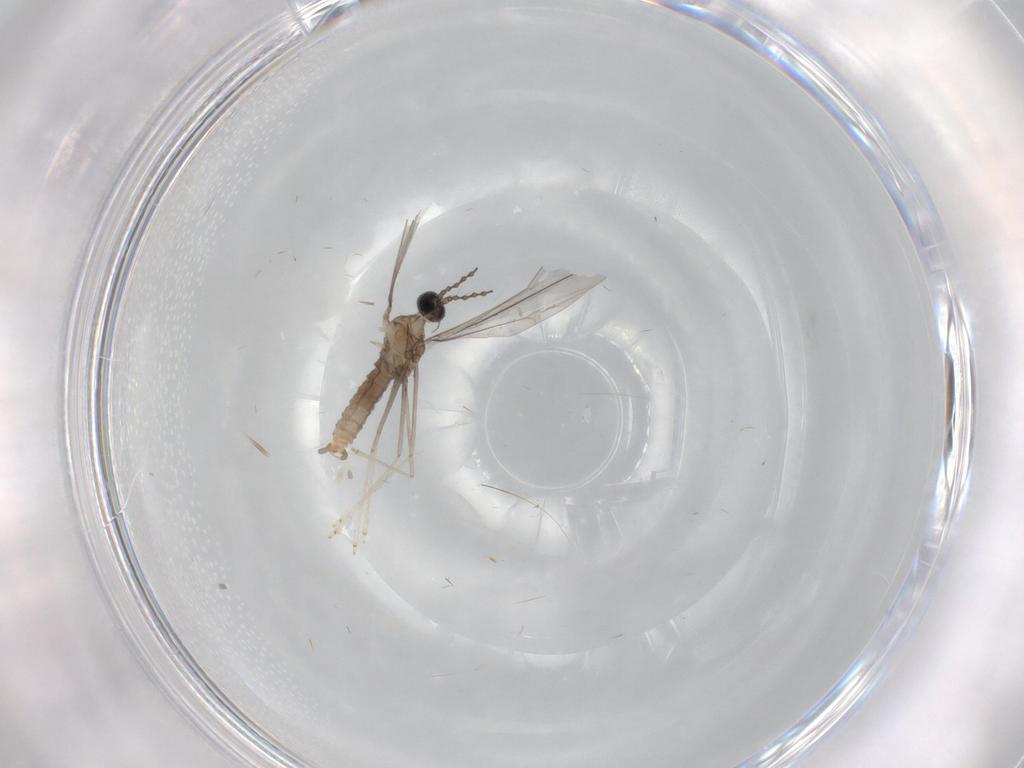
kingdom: Animalia
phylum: Arthropoda
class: Insecta
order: Diptera
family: Cecidomyiidae
